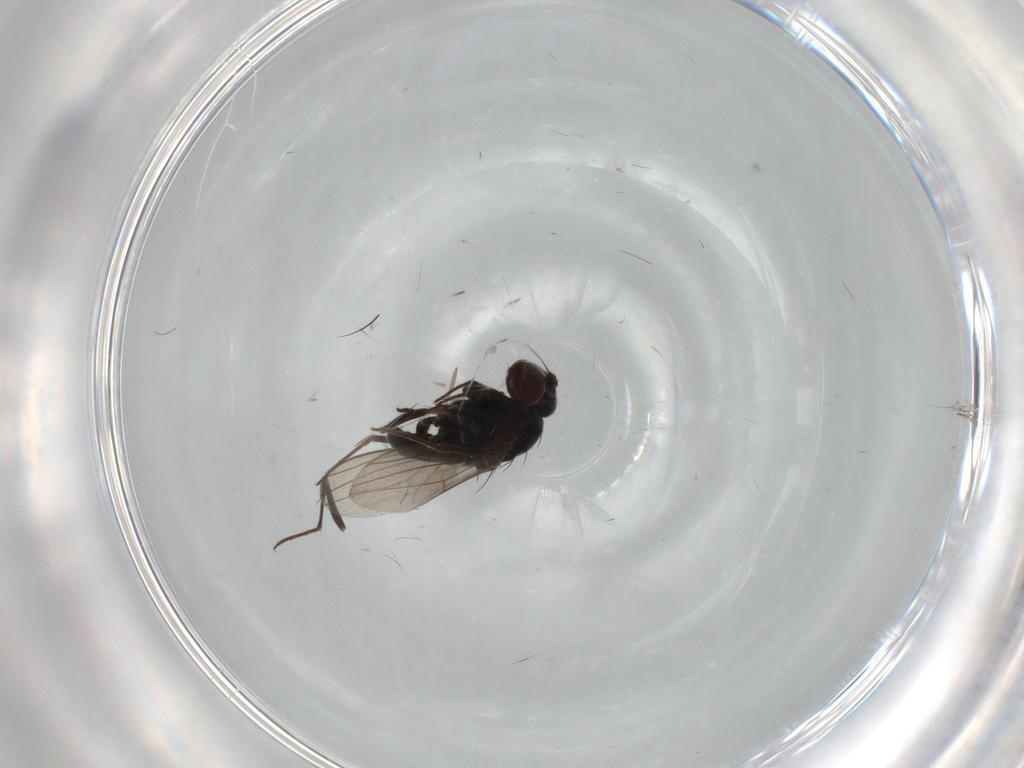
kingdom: Animalia
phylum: Arthropoda
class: Insecta
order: Diptera
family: Cecidomyiidae
